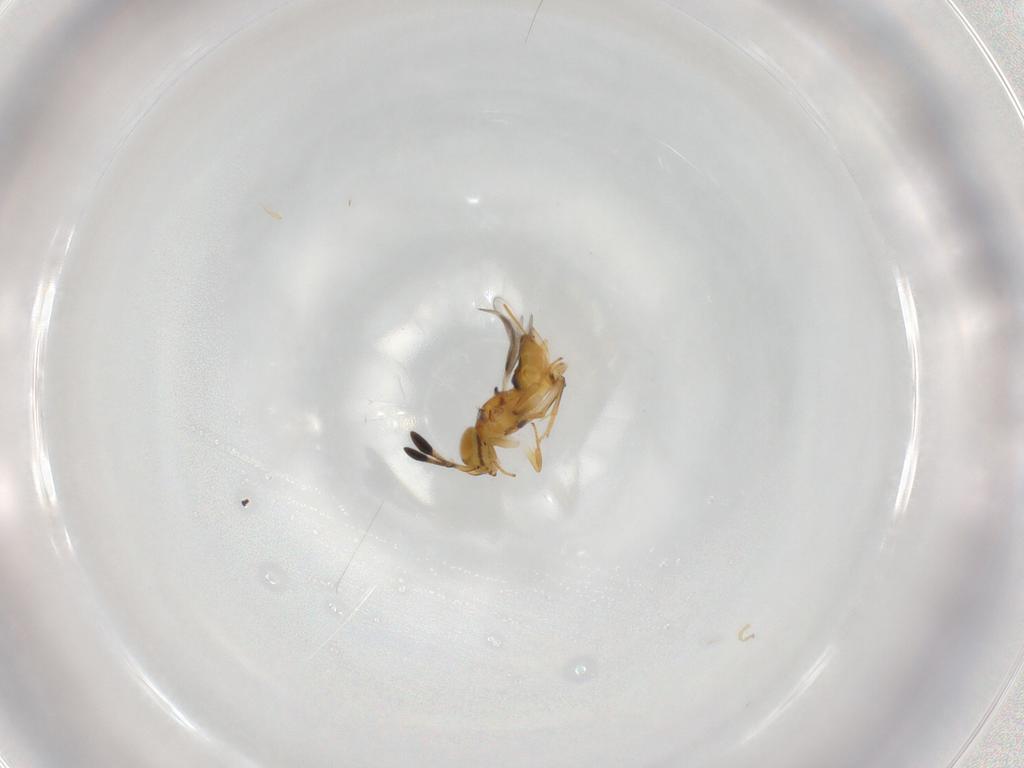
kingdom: Animalia
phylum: Arthropoda
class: Insecta
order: Hymenoptera
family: Encyrtidae
